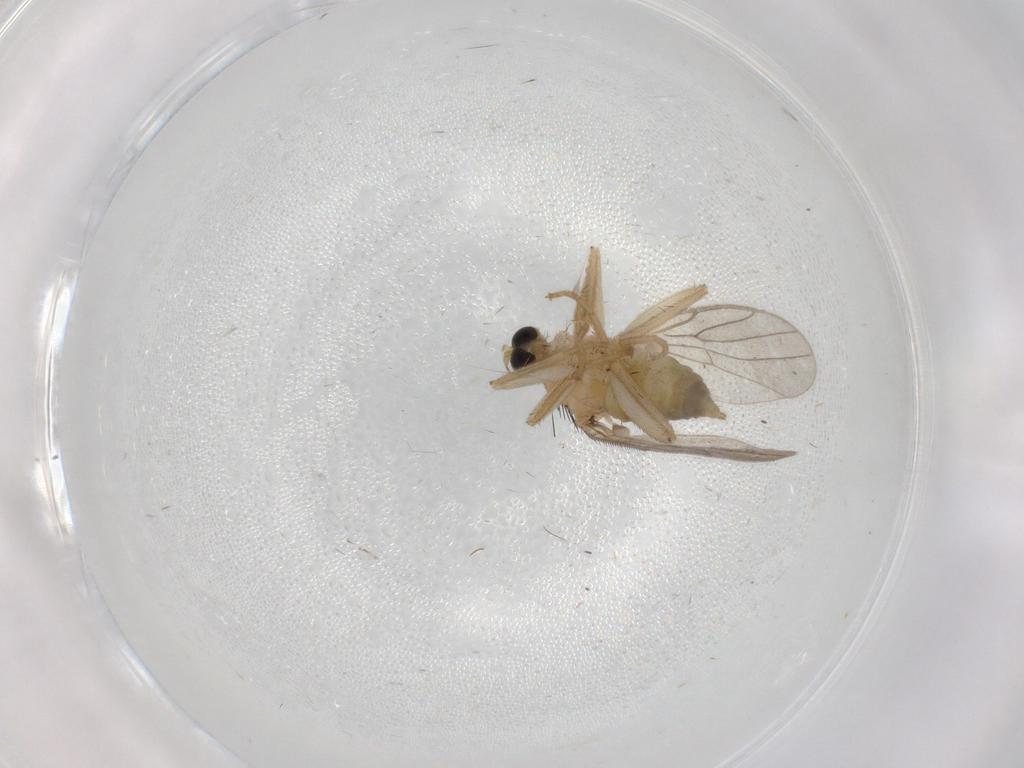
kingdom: Animalia
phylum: Arthropoda
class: Insecta
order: Diptera
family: Hybotidae
